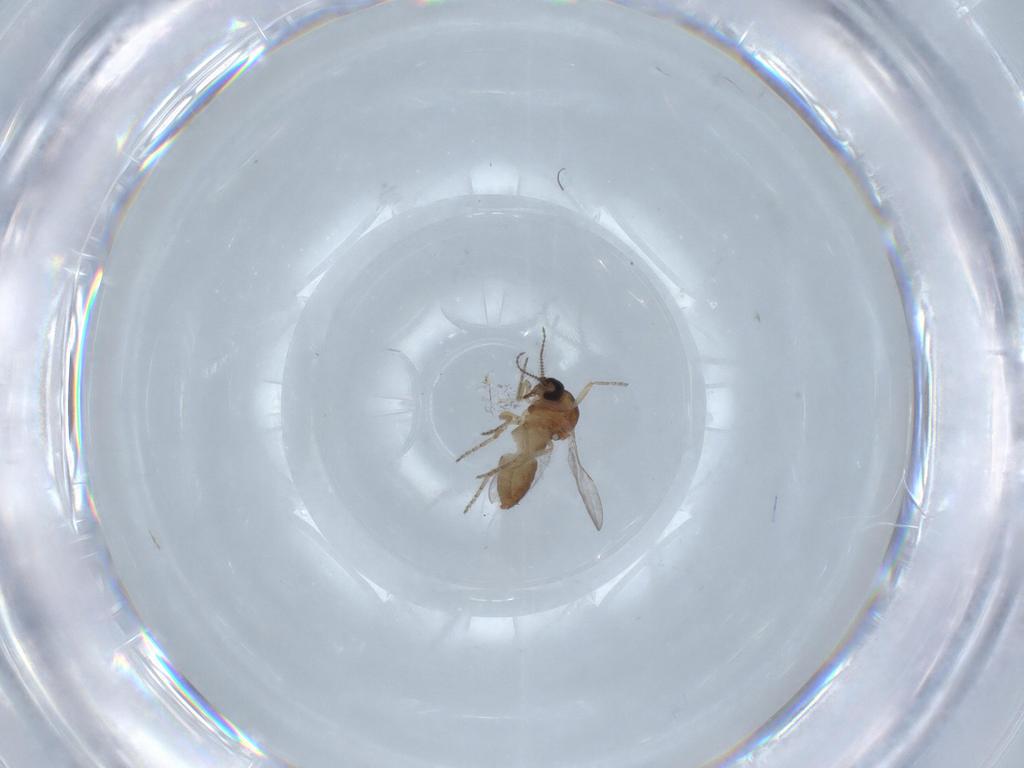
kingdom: Animalia
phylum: Arthropoda
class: Insecta
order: Diptera
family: Ceratopogonidae
